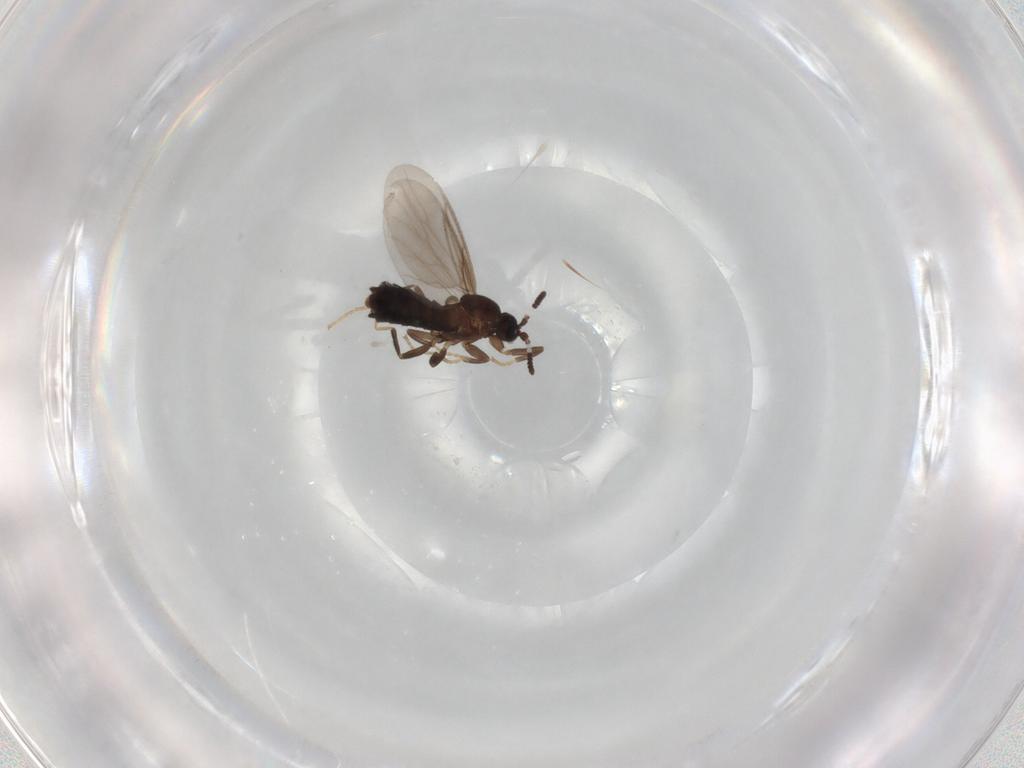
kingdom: Animalia
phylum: Arthropoda
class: Insecta
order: Diptera
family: Scatopsidae
